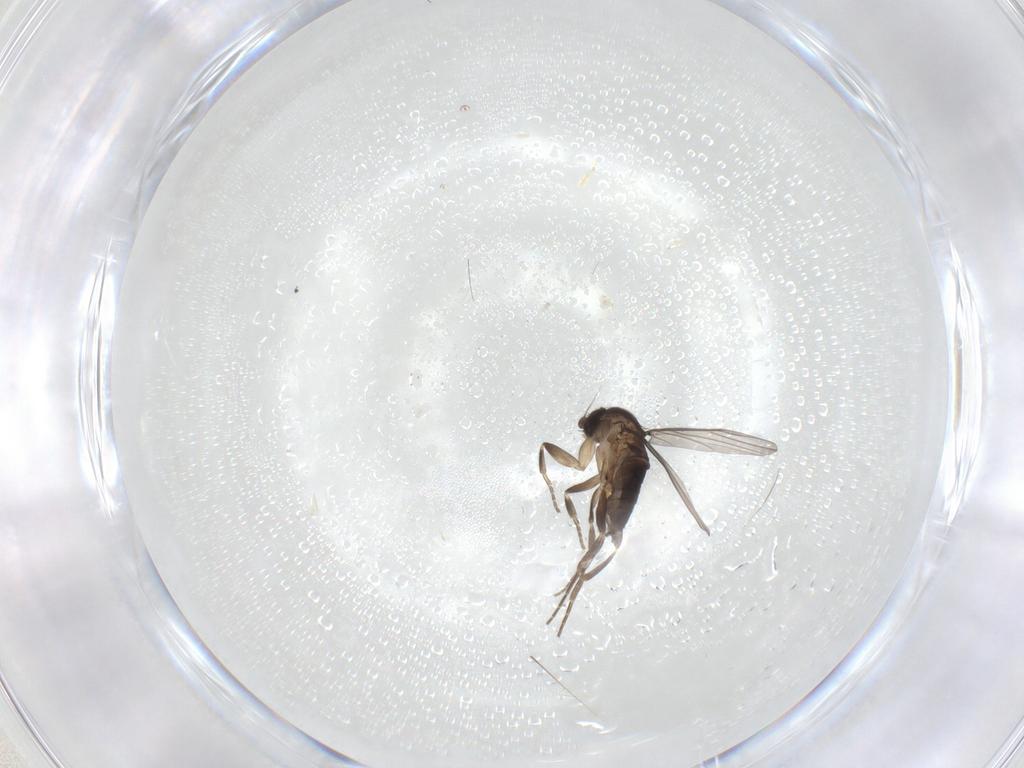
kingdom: Animalia
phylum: Arthropoda
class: Insecta
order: Diptera
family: Phoridae
